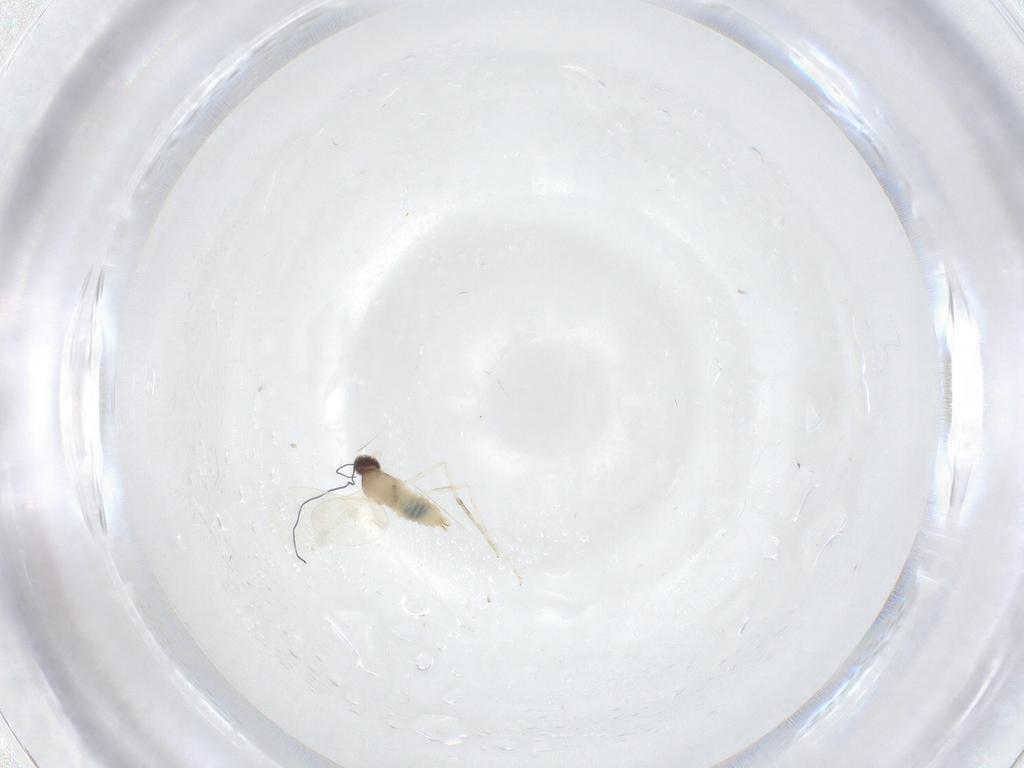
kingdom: Animalia
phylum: Arthropoda
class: Insecta
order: Diptera
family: Cecidomyiidae
